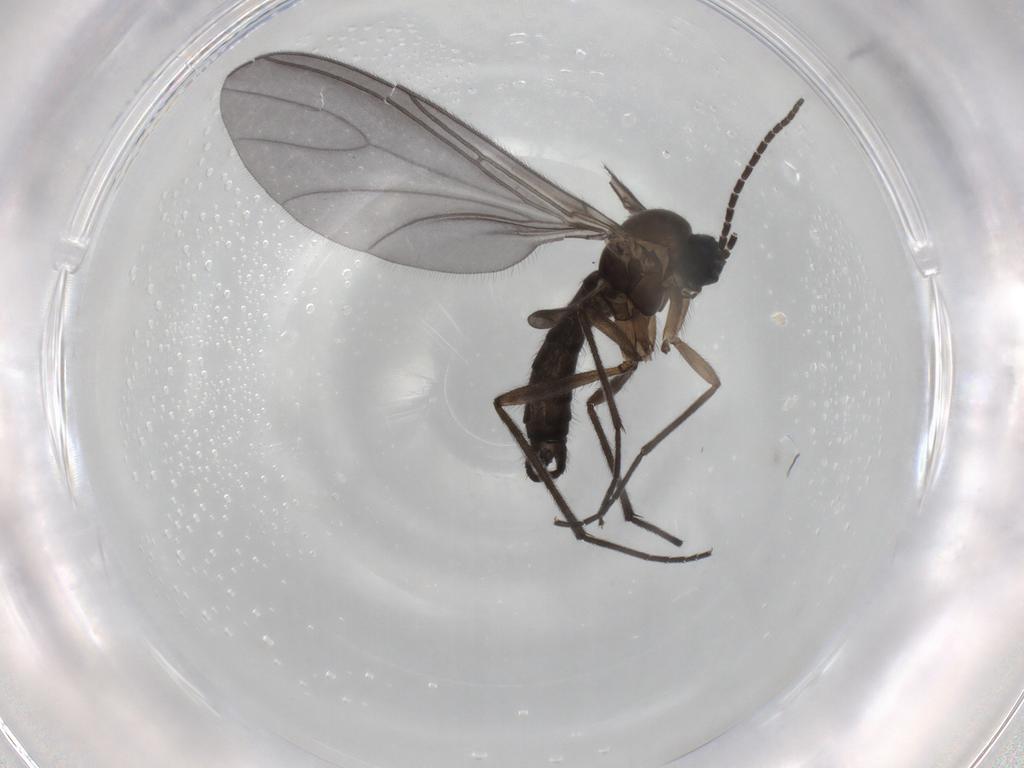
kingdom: Animalia
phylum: Arthropoda
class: Insecta
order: Diptera
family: Sciaridae
